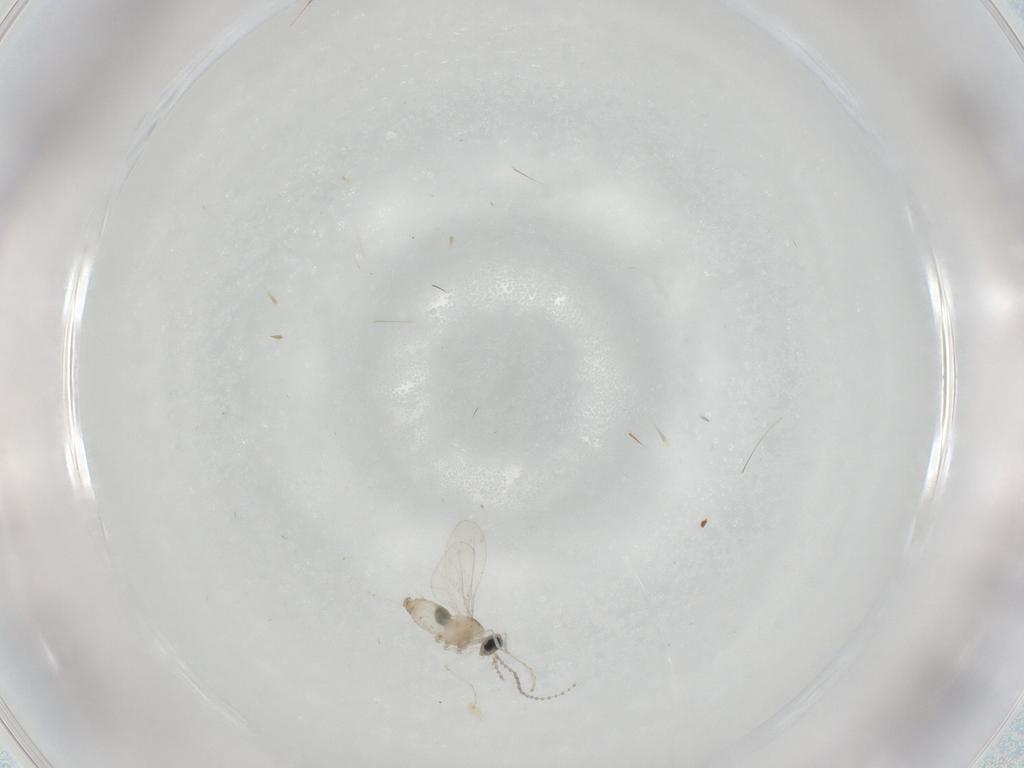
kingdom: Animalia
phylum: Arthropoda
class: Insecta
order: Diptera
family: Cecidomyiidae
